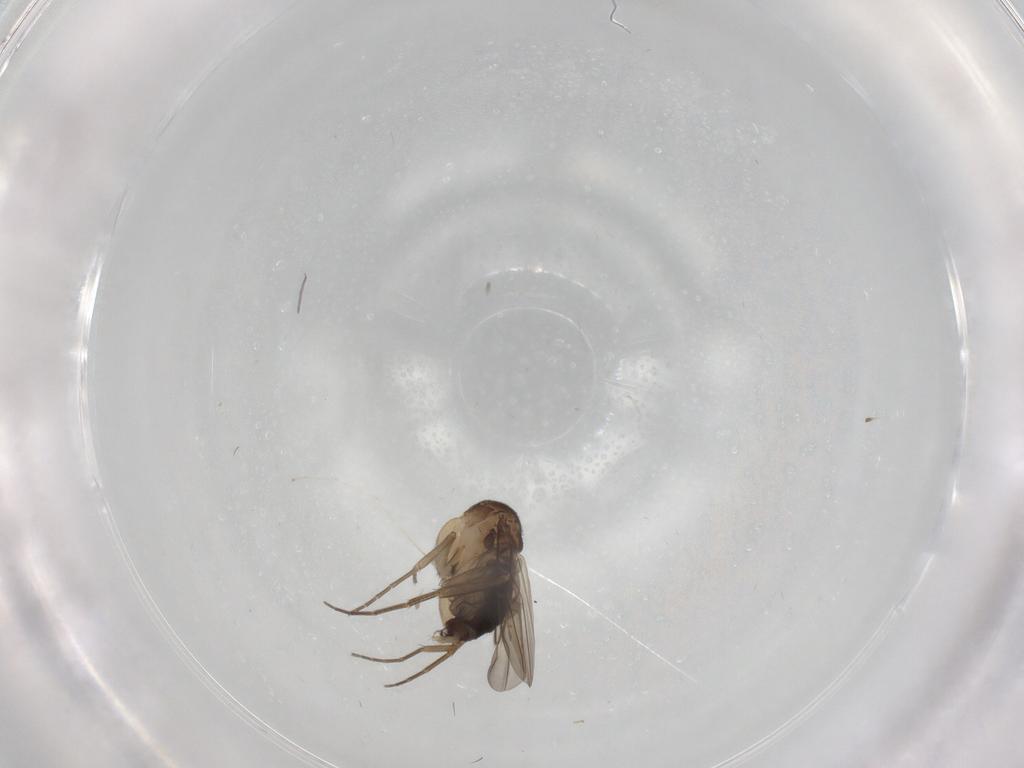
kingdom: Animalia
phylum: Arthropoda
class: Insecta
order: Diptera
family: Phoridae
